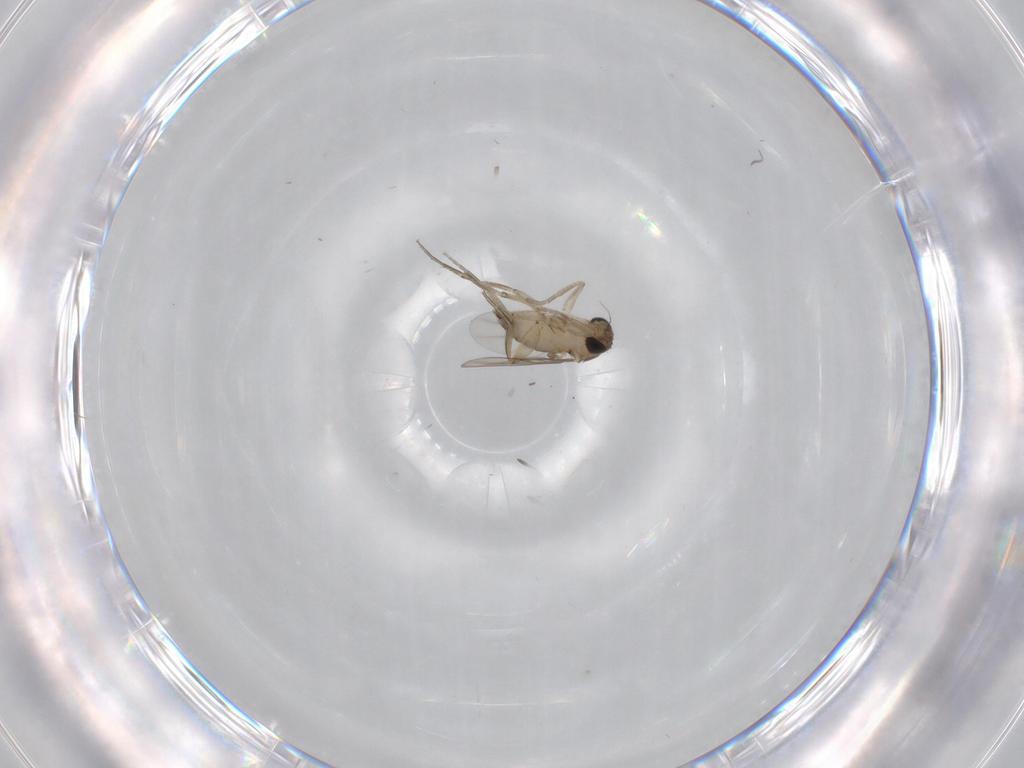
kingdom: Animalia
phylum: Arthropoda
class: Insecta
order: Diptera
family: Phoridae
